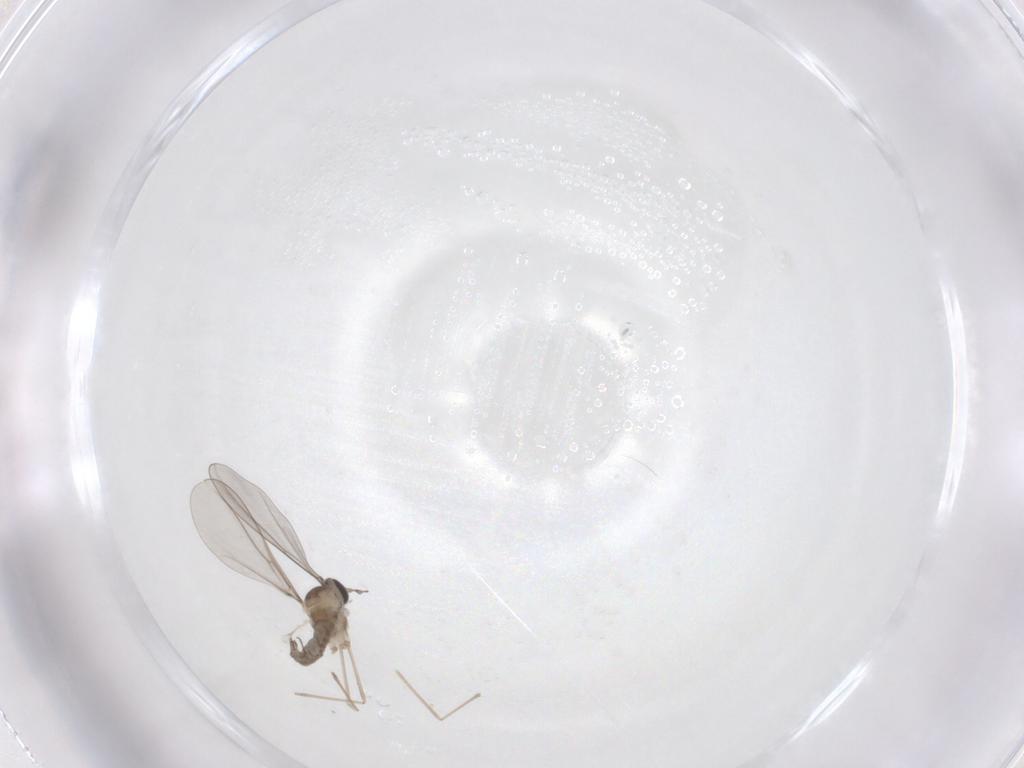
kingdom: Animalia
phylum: Arthropoda
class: Insecta
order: Diptera
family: Cecidomyiidae
